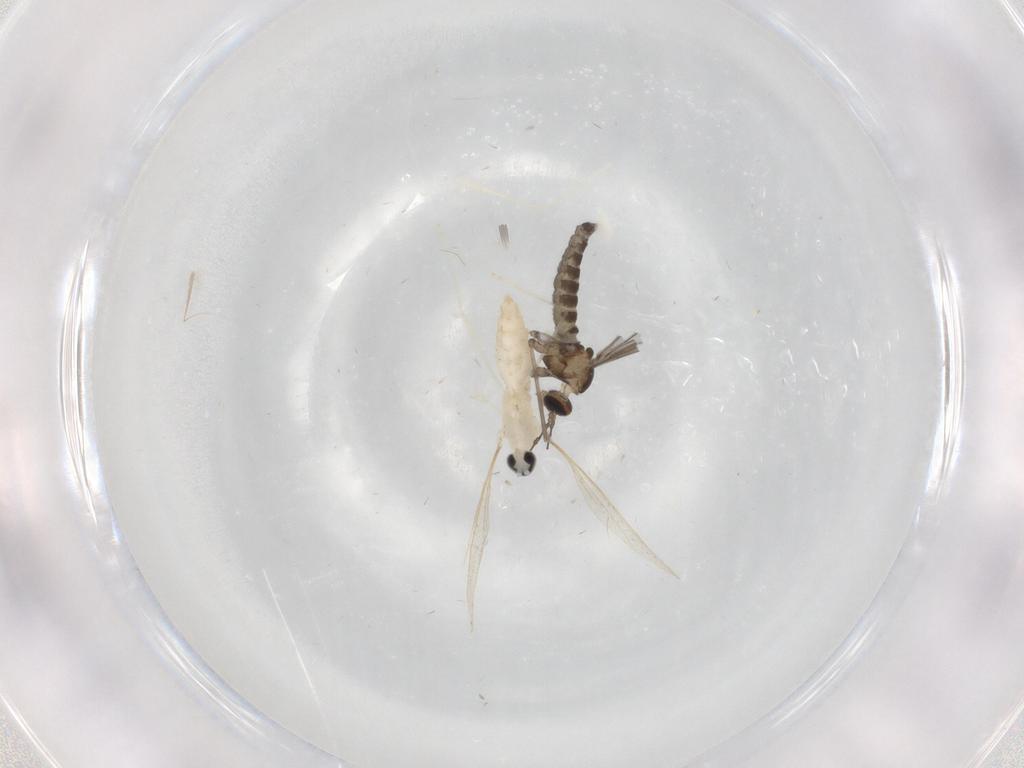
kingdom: Animalia
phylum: Arthropoda
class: Insecta
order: Diptera
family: Cecidomyiidae
